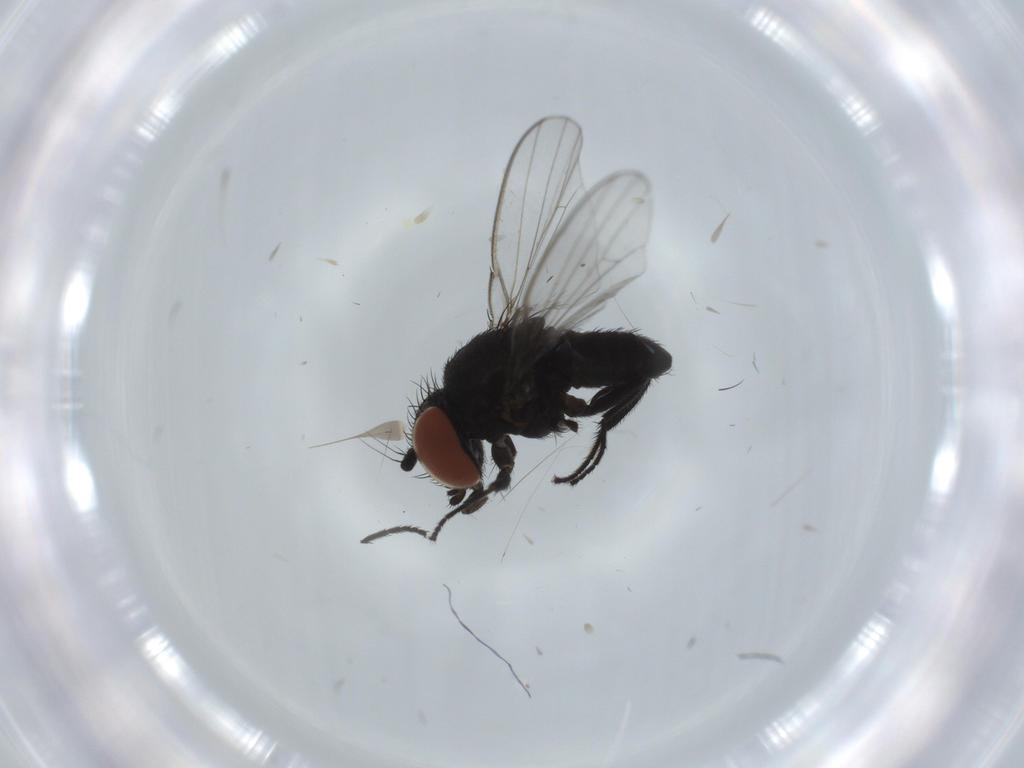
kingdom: Animalia
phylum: Arthropoda
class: Insecta
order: Diptera
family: Milichiidae
